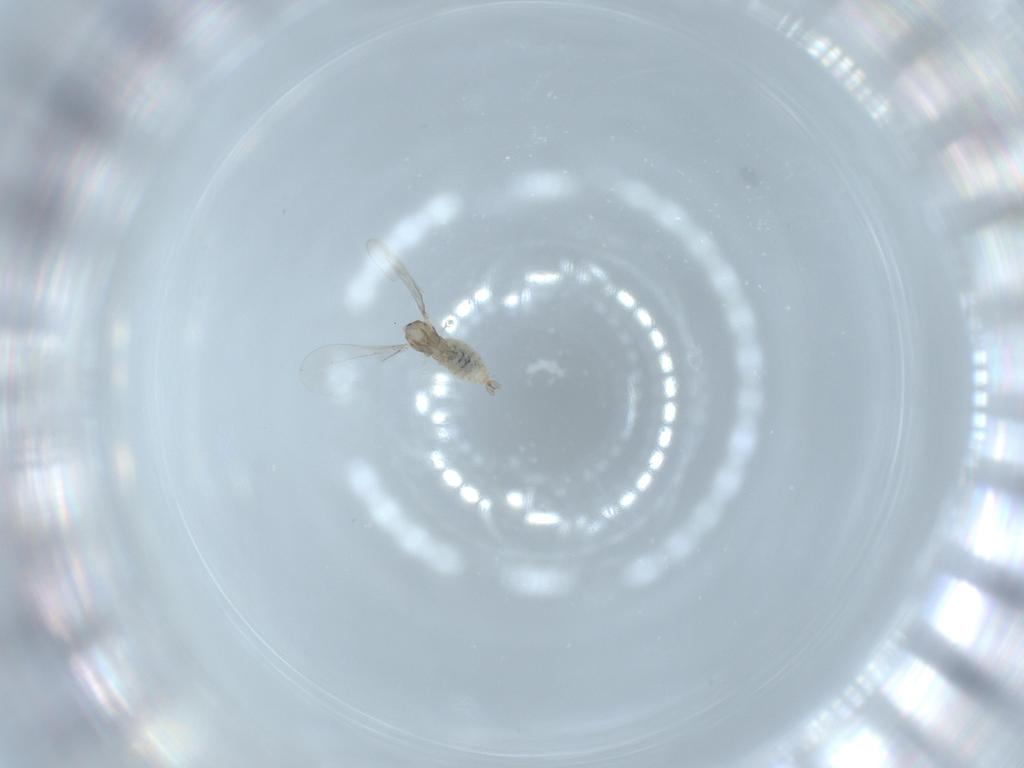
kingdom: Animalia
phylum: Arthropoda
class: Insecta
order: Diptera
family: Cecidomyiidae
